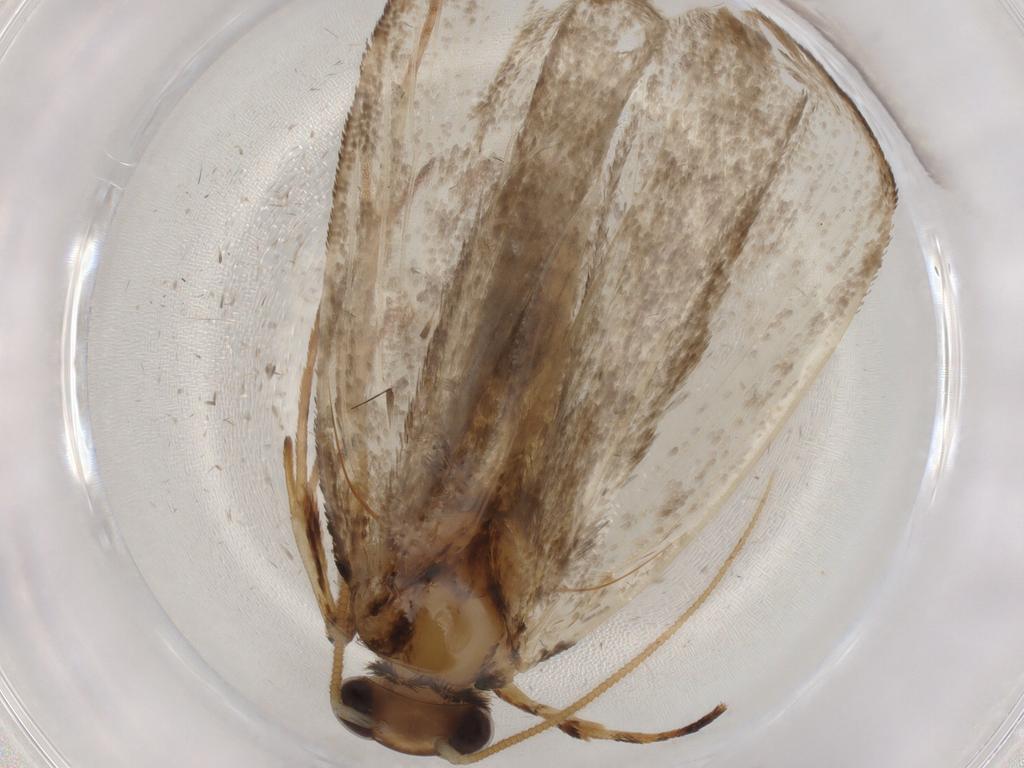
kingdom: Animalia
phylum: Arthropoda
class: Insecta
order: Lepidoptera
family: Tineidae
